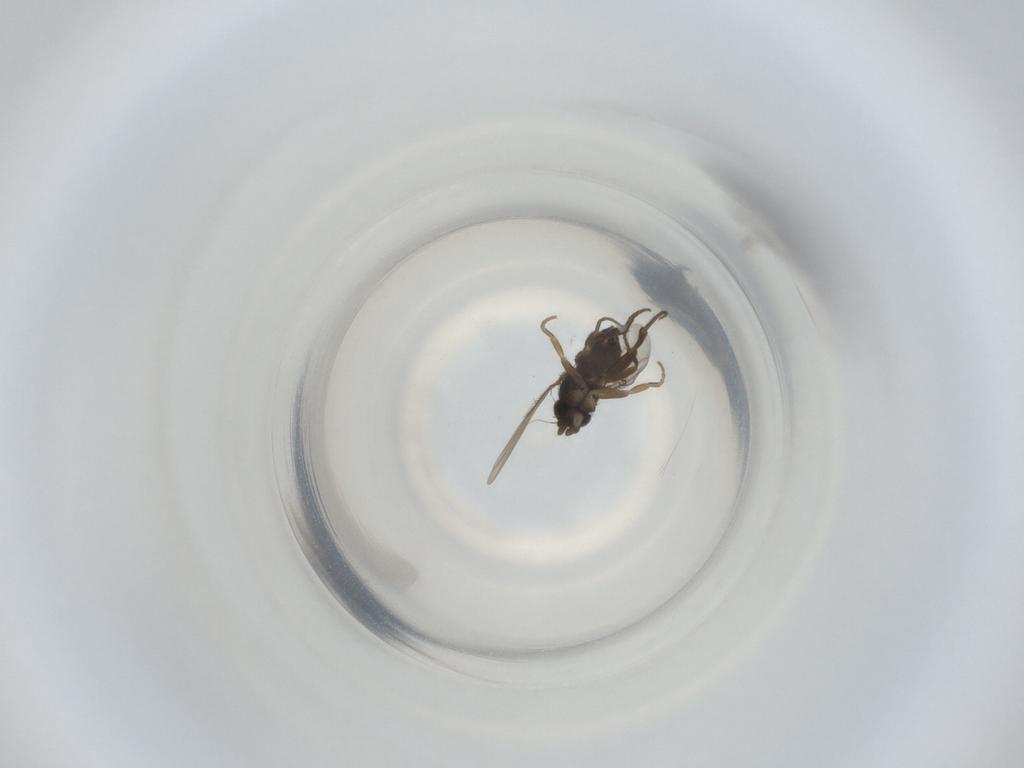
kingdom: Animalia
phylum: Arthropoda
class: Insecta
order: Diptera
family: Phoridae
